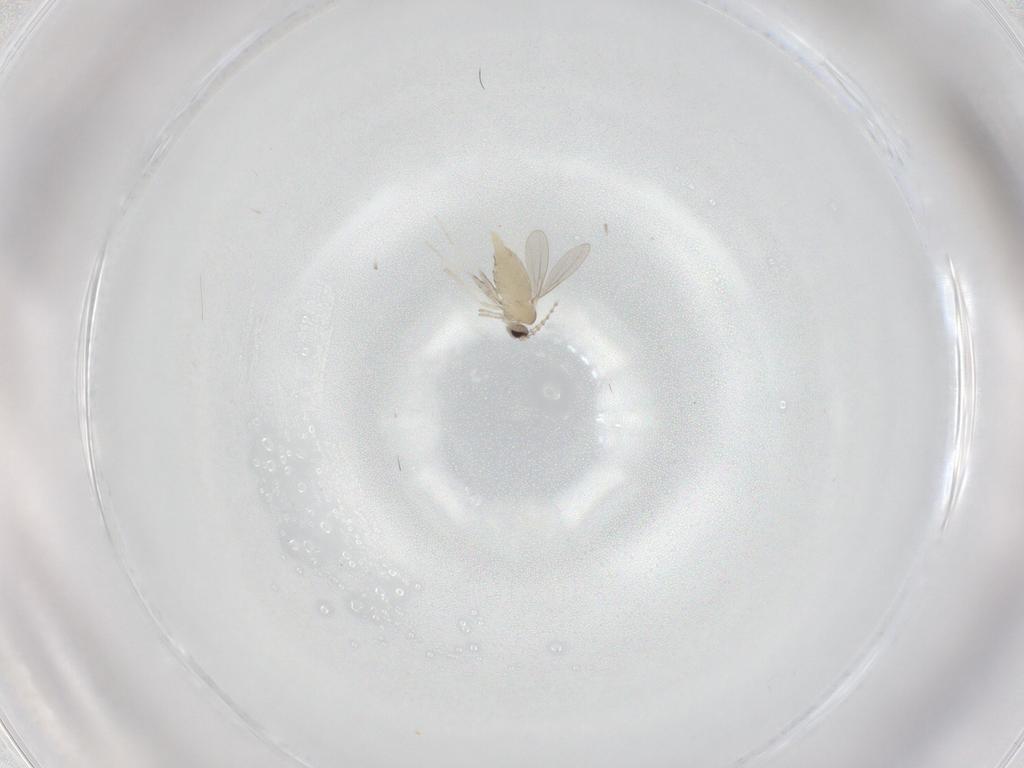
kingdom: Animalia
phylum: Arthropoda
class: Insecta
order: Diptera
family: Cecidomyiidae
